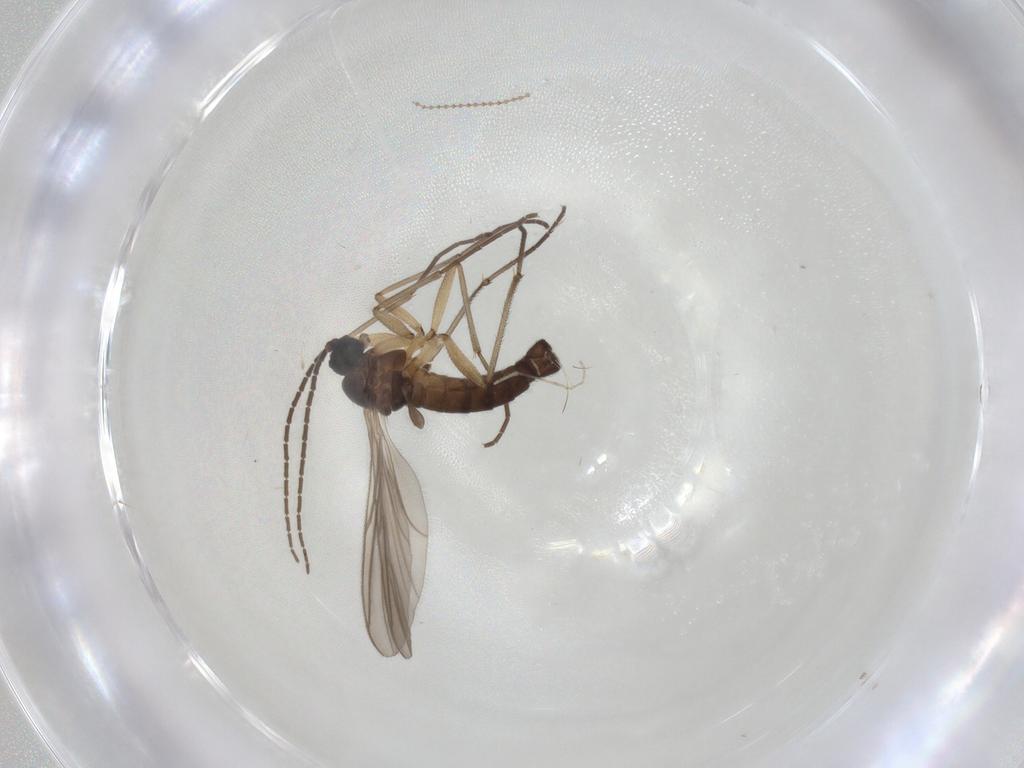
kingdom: Animalia
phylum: Arthropoda
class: Insecta
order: Diptera
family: Sciaridae
